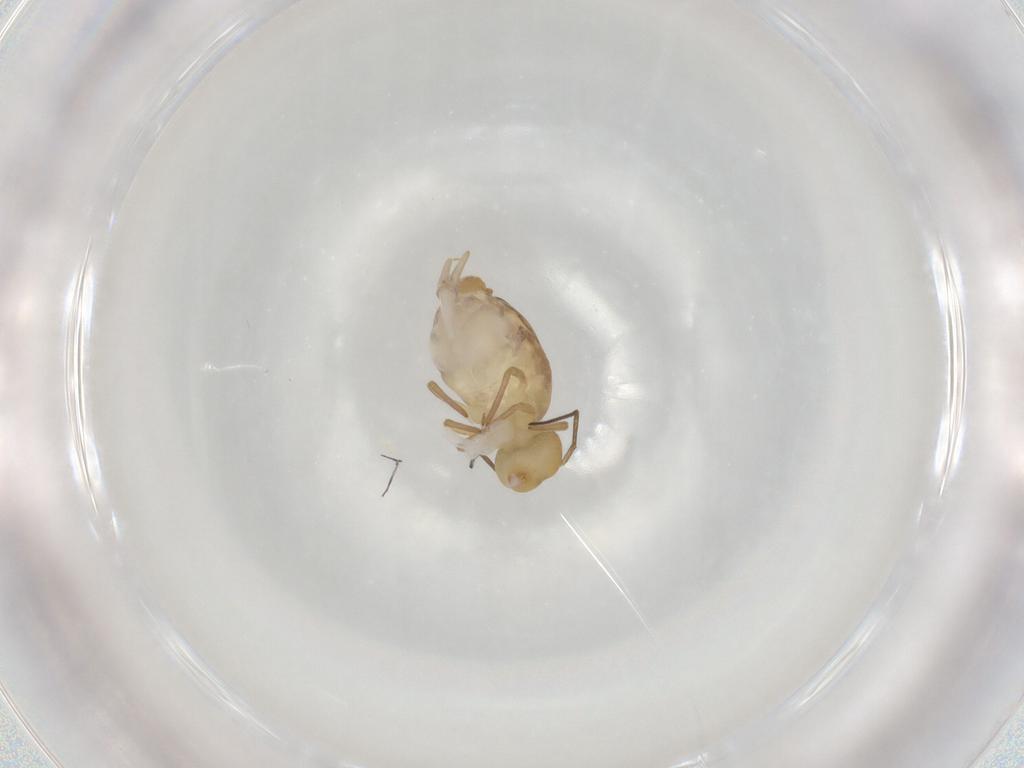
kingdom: Animalia
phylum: Arthropoda
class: Collembola
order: Symphypleona
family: Sminthuridae
